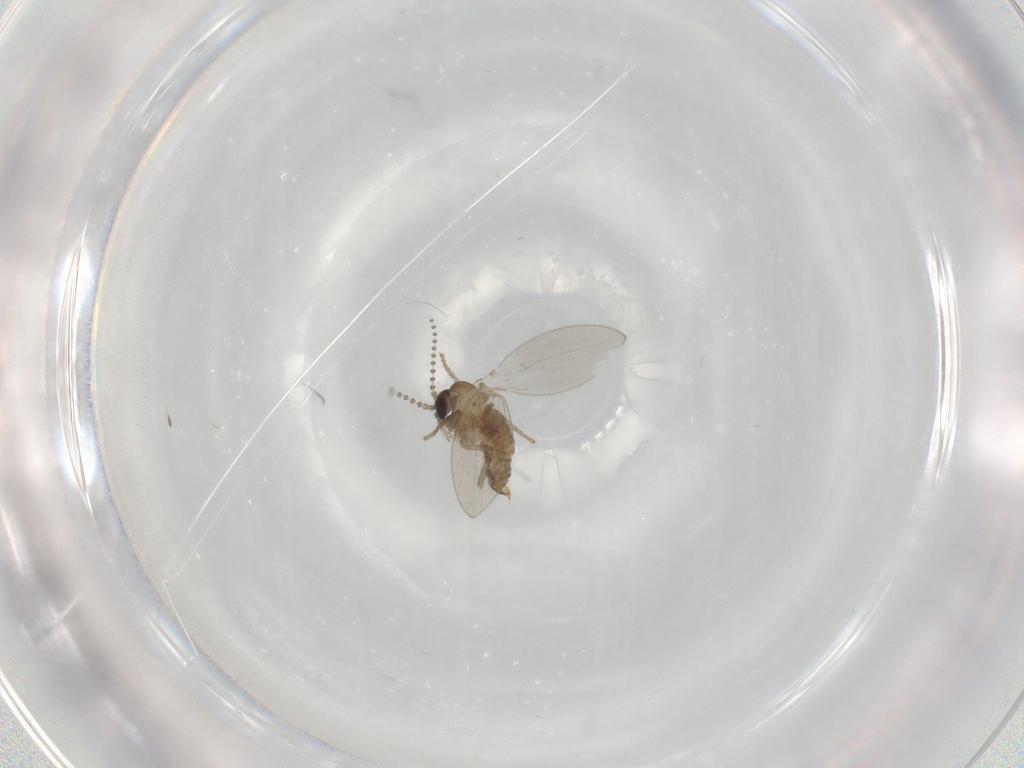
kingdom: Animalia
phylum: Arthropoda
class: Insecta
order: Diptera
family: Psychodidae
